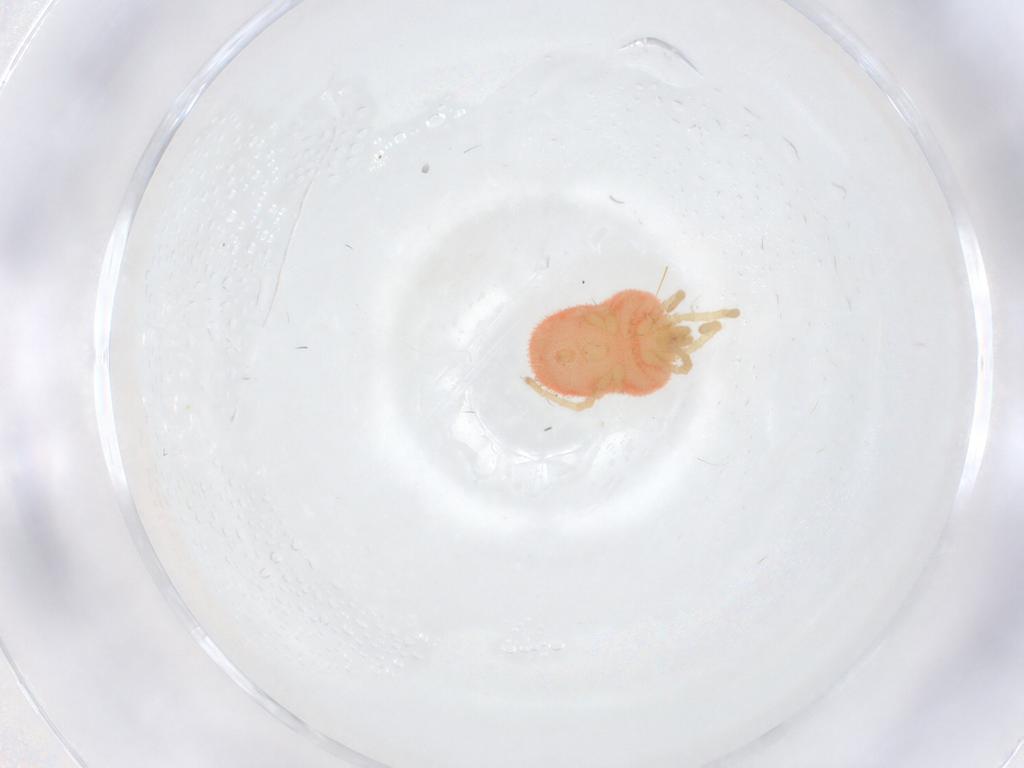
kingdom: Animalia
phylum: Arthropoda
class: Arachnida
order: Trombidiformes
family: Trombidiidae
